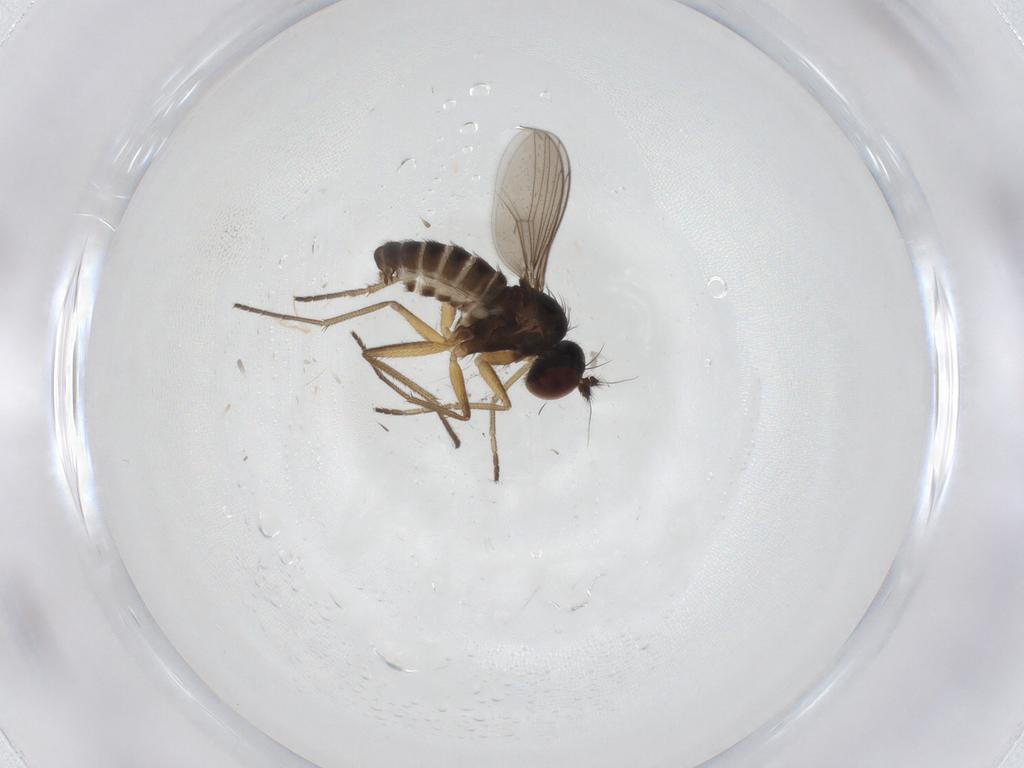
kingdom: Animalia
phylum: Arthropoda
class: Insecta
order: Diptera
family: Dolichopodidae
